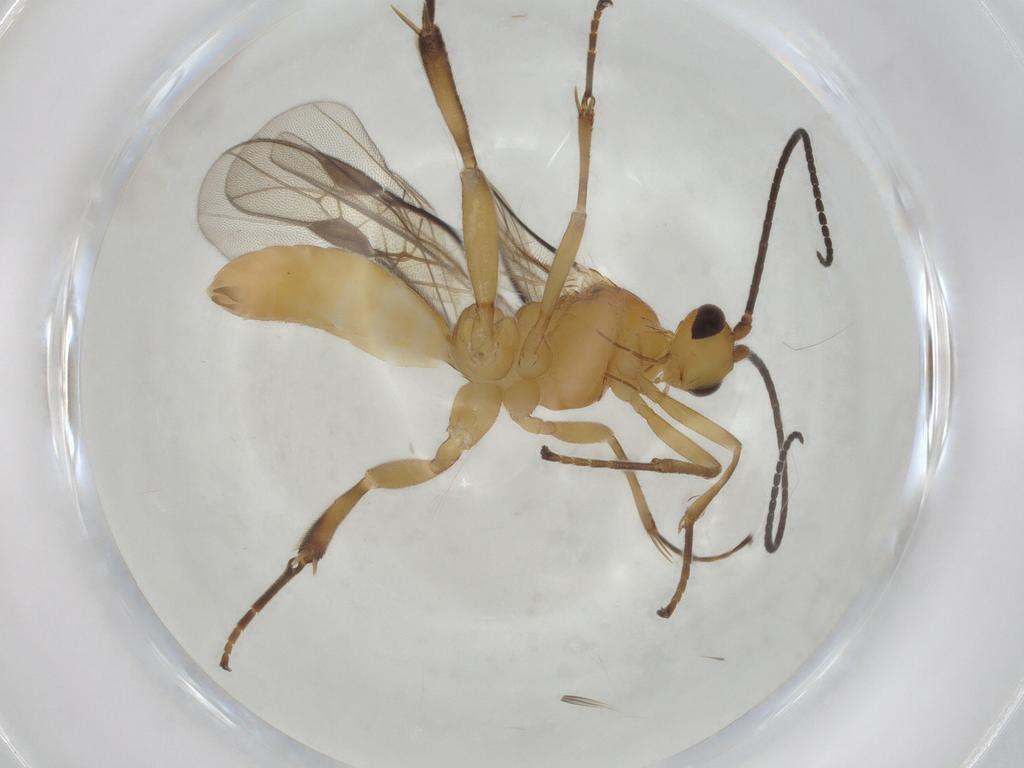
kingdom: Animalia
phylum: Arthropoda
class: Insecta
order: Hymenoptera
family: Braconidae
